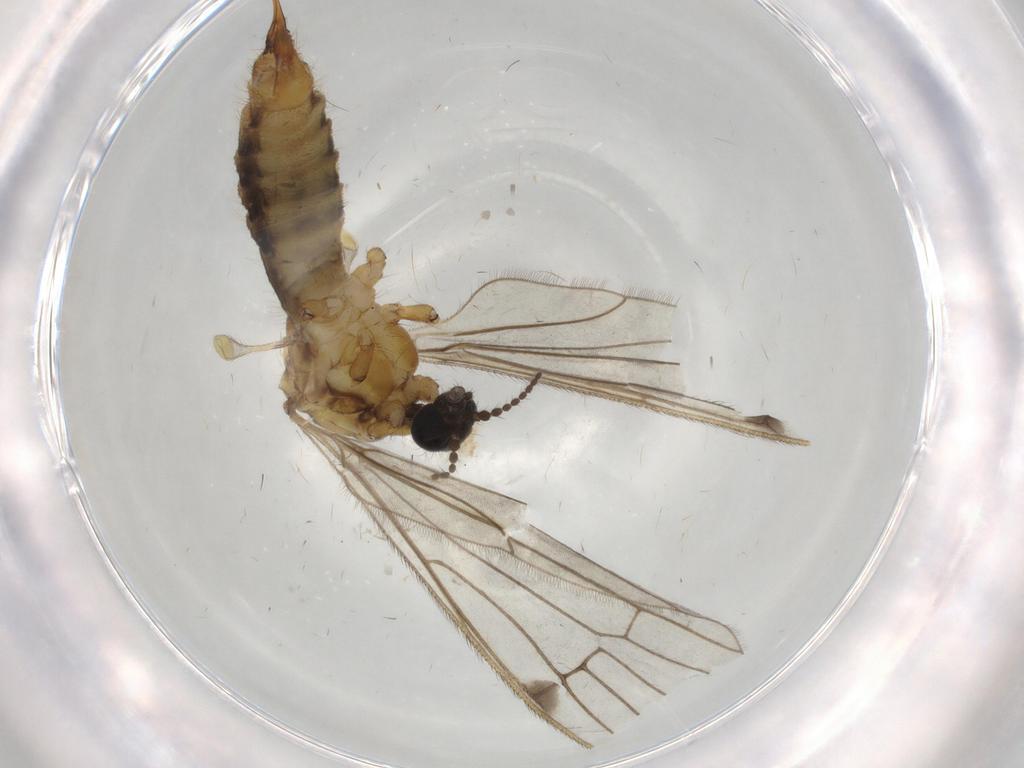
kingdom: Animalia
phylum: Arthropoda
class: Insecta
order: Diptera
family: Cecidomyiidae
